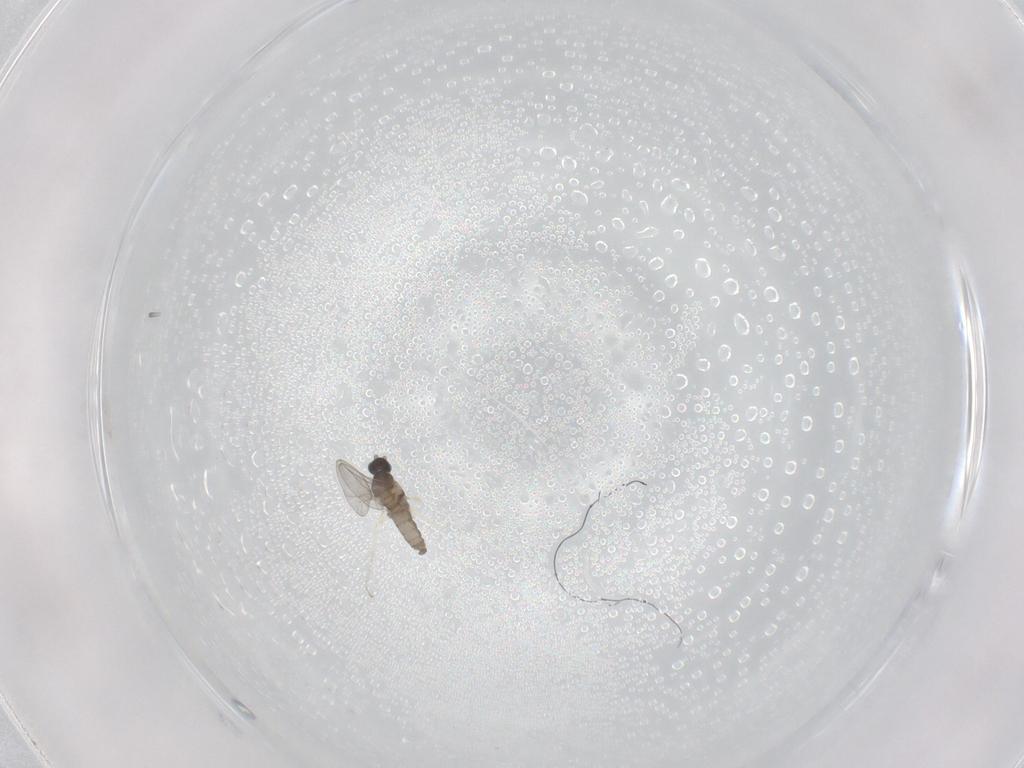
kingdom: Animalia
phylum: Arthropoda
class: Insecta
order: Diptera
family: Cecidomyiidae
